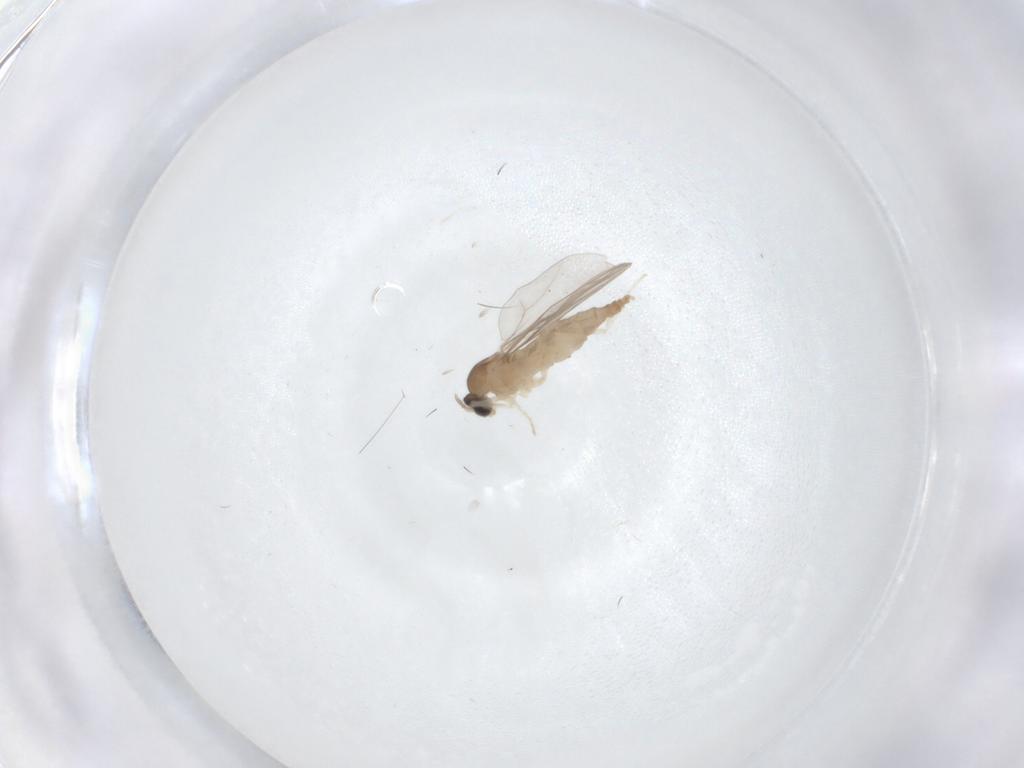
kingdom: Animalia
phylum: Arthropoda
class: Insecta
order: Diptera
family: Cecidomyiidae
